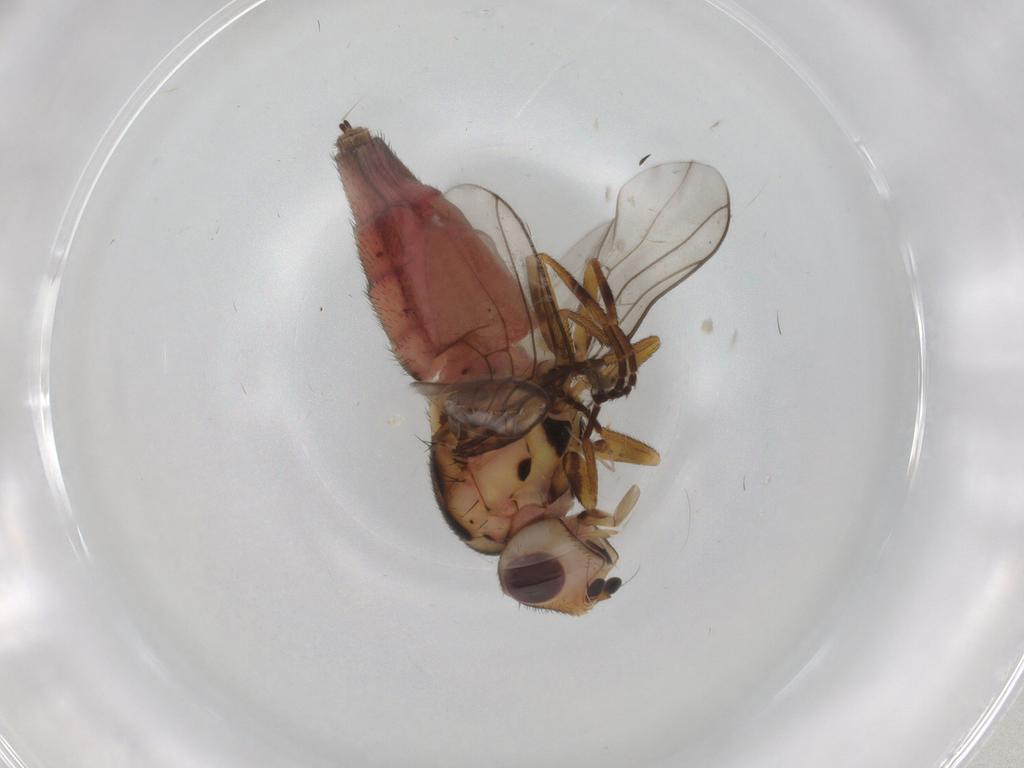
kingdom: Animalia
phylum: Arthropoda
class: Insecta
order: Diptera
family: Chloropidae
